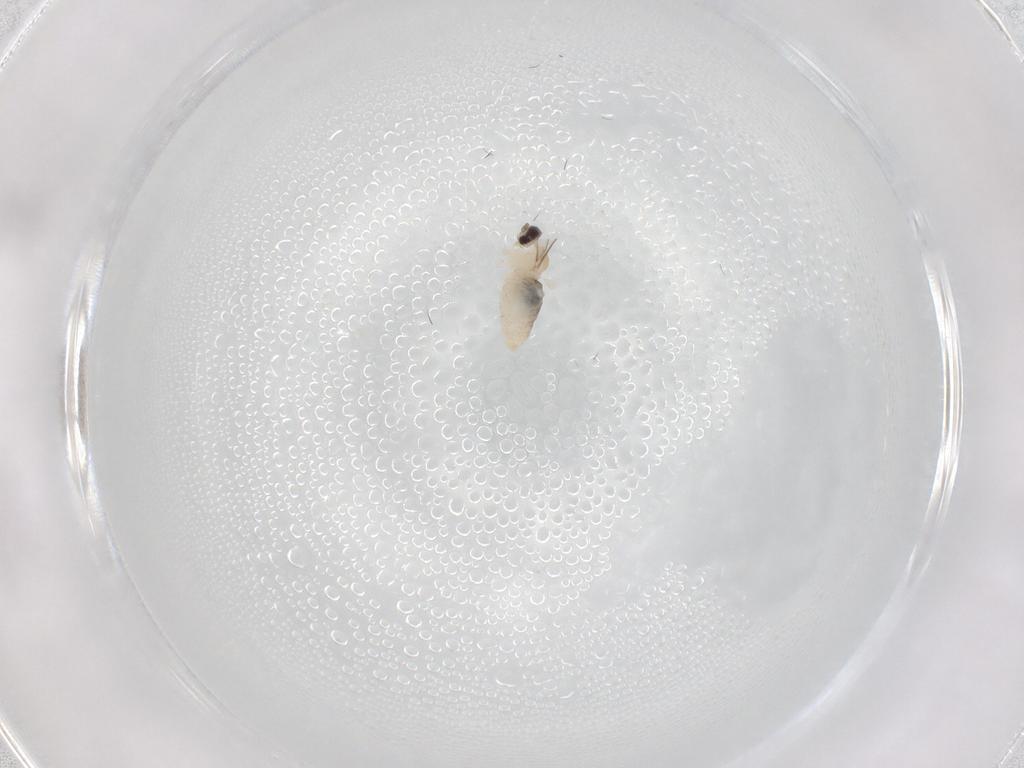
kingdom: Animalia
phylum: Arthropoda
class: Insecta
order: Diptera
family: Cecidomyiidae
